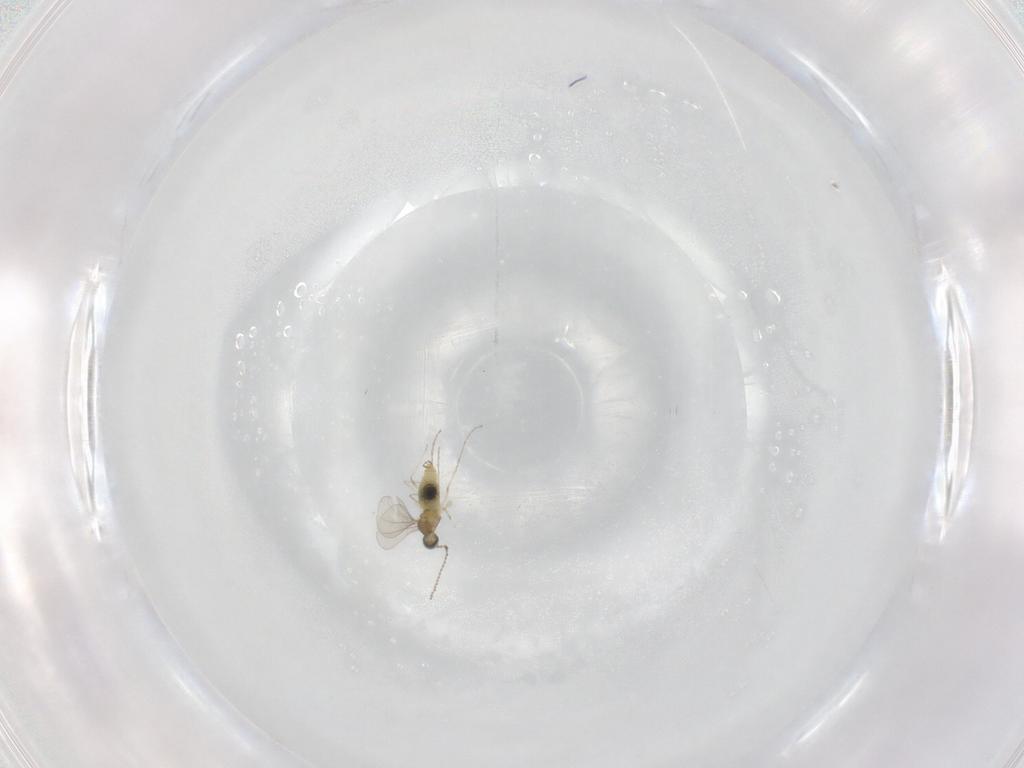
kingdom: Animalia
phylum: Arthropoda
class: Insecta
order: Diptera
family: Cecidomyiidae
